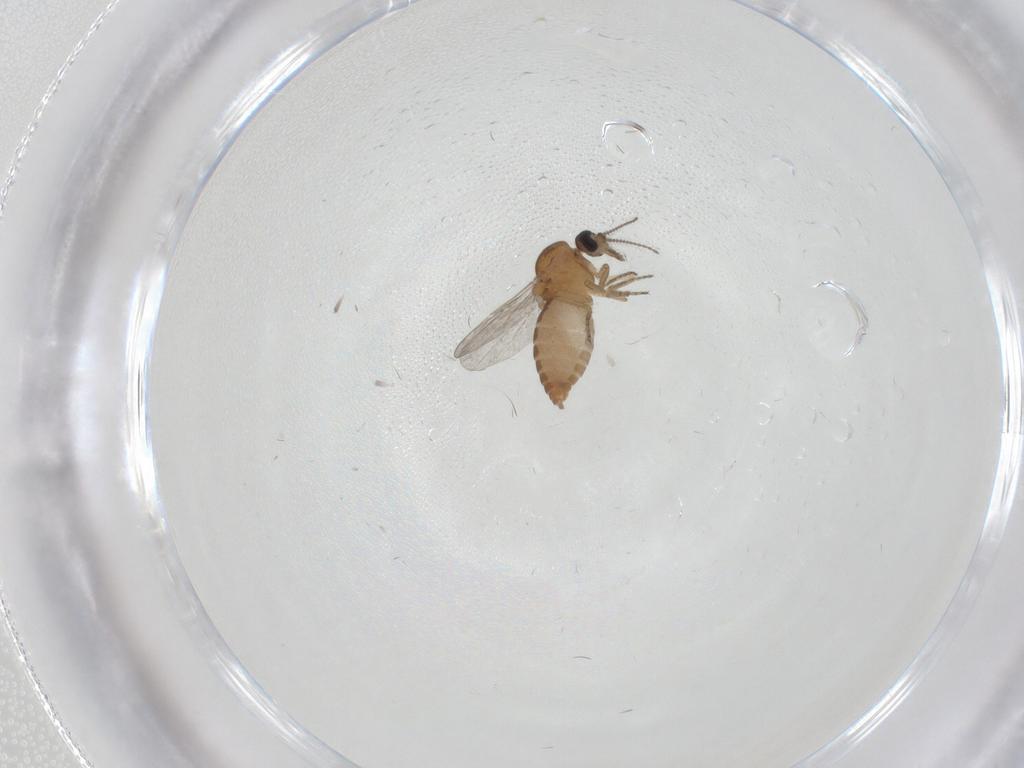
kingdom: Animalia
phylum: Arthropoda
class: Insecta
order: Diptera
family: Ceratopogonidae
